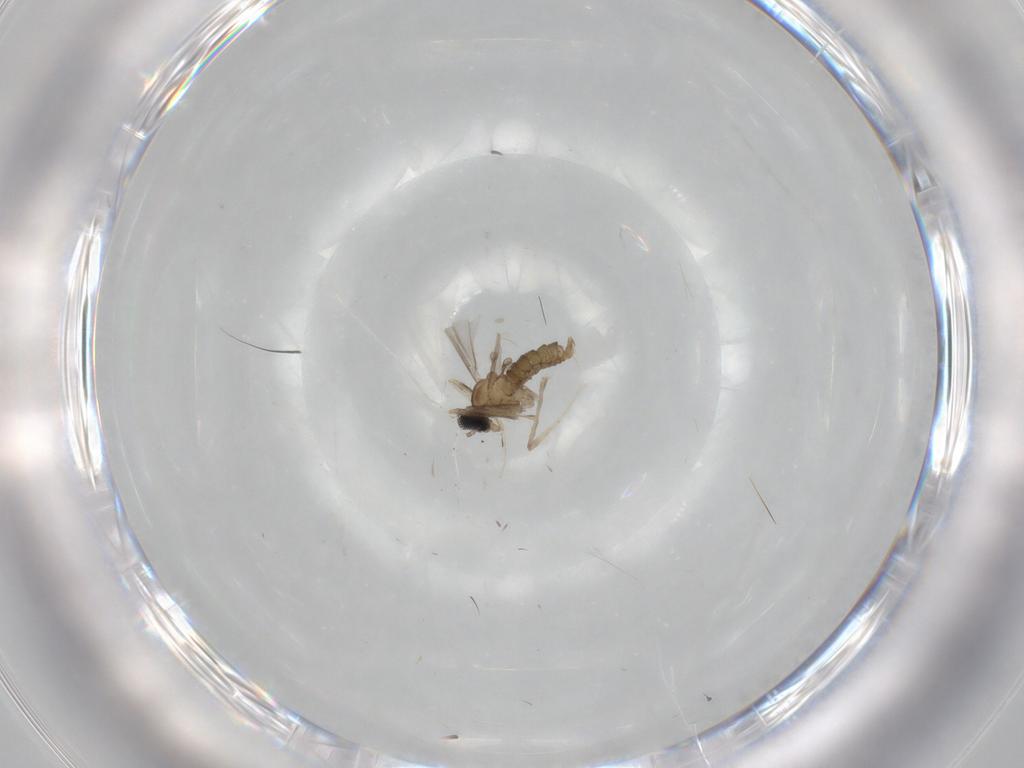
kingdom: Animalia
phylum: Arthropoda
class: Insecta
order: Diptera
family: Cecidomyiidae
